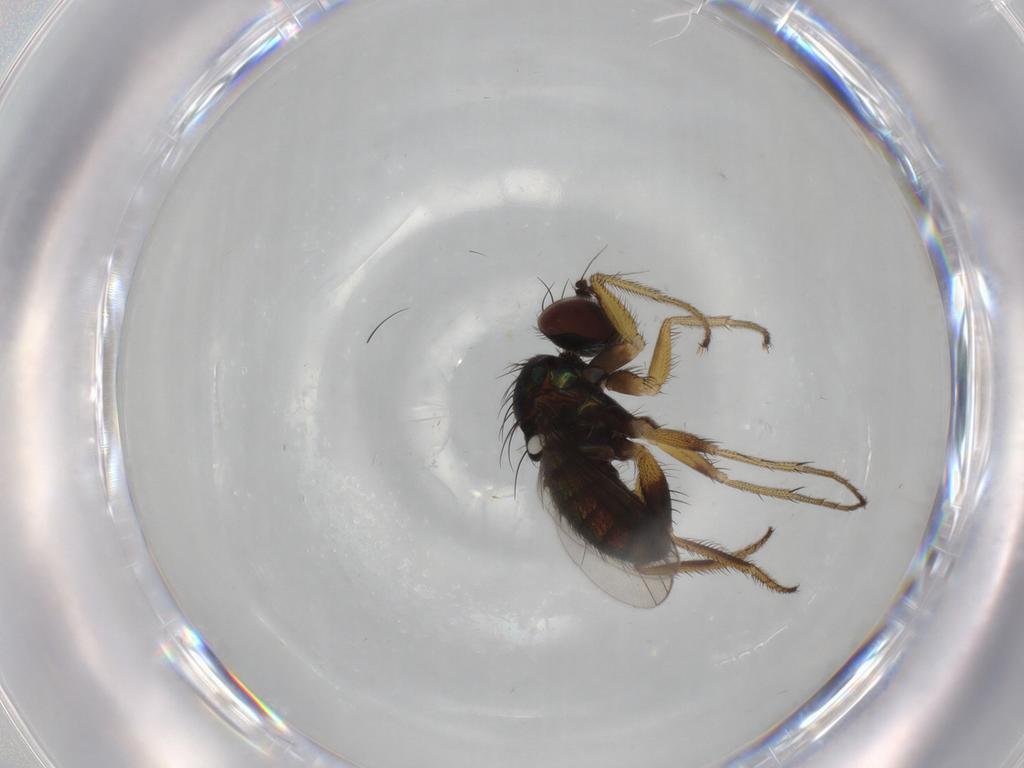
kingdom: Animalia
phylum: Arthropoda
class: Insecta
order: Diptera
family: Dolichopodidae
